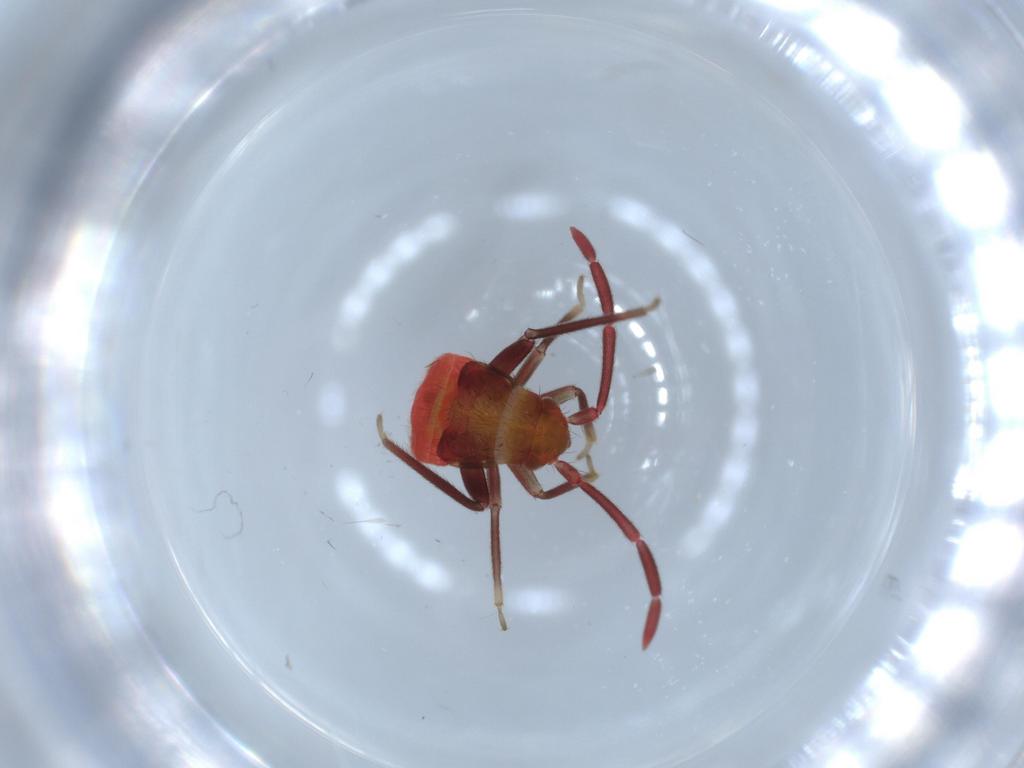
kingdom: Animalia
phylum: Arthropoda
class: Insecta
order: Hemiptera
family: Miridae
